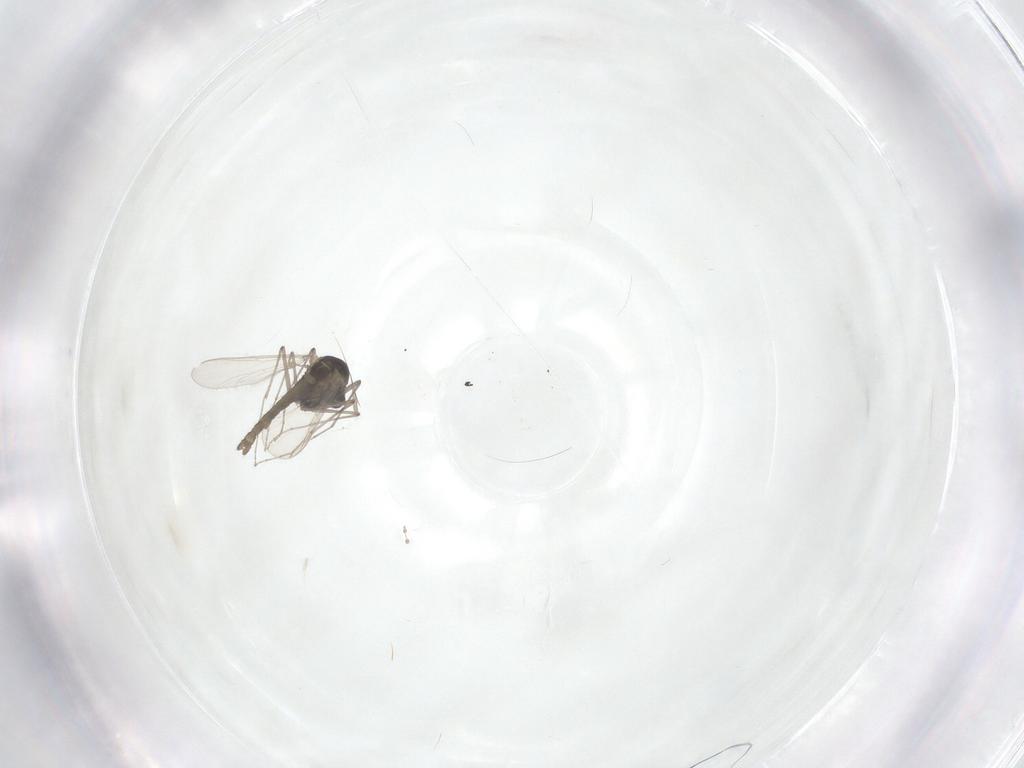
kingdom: Animalia
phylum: Arthropoda
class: Insecta
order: Diptera
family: Chironomidae
